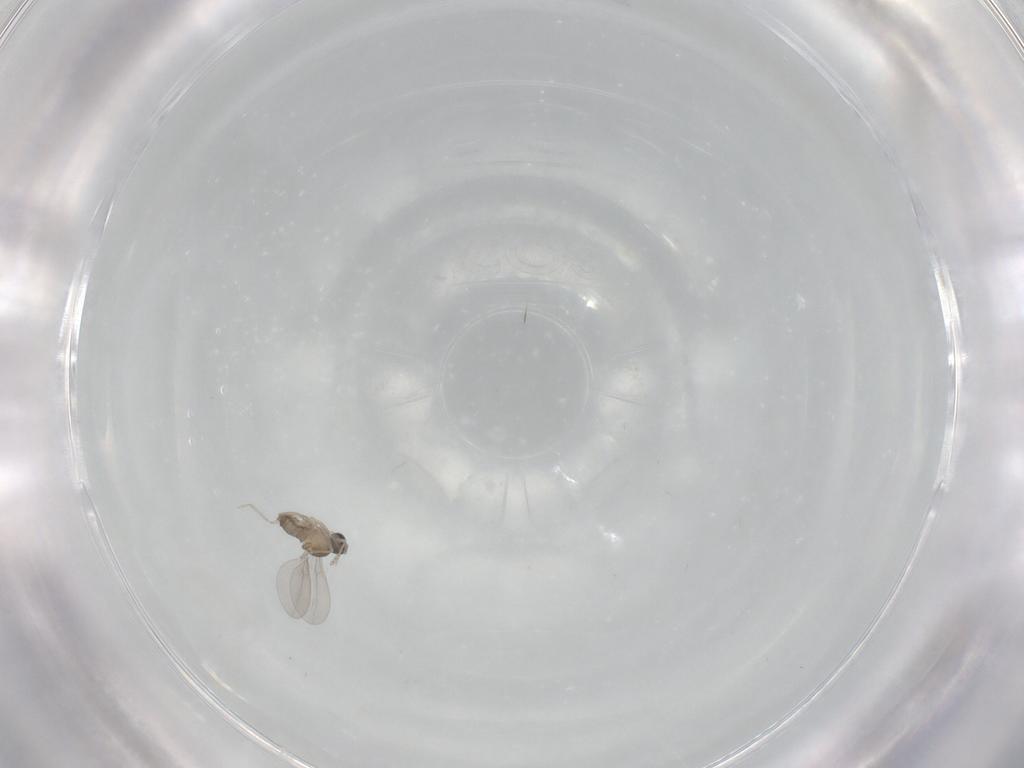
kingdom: Animalia
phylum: Arthropoda
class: Insecta
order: Diptera
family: Cecidomyiidae
